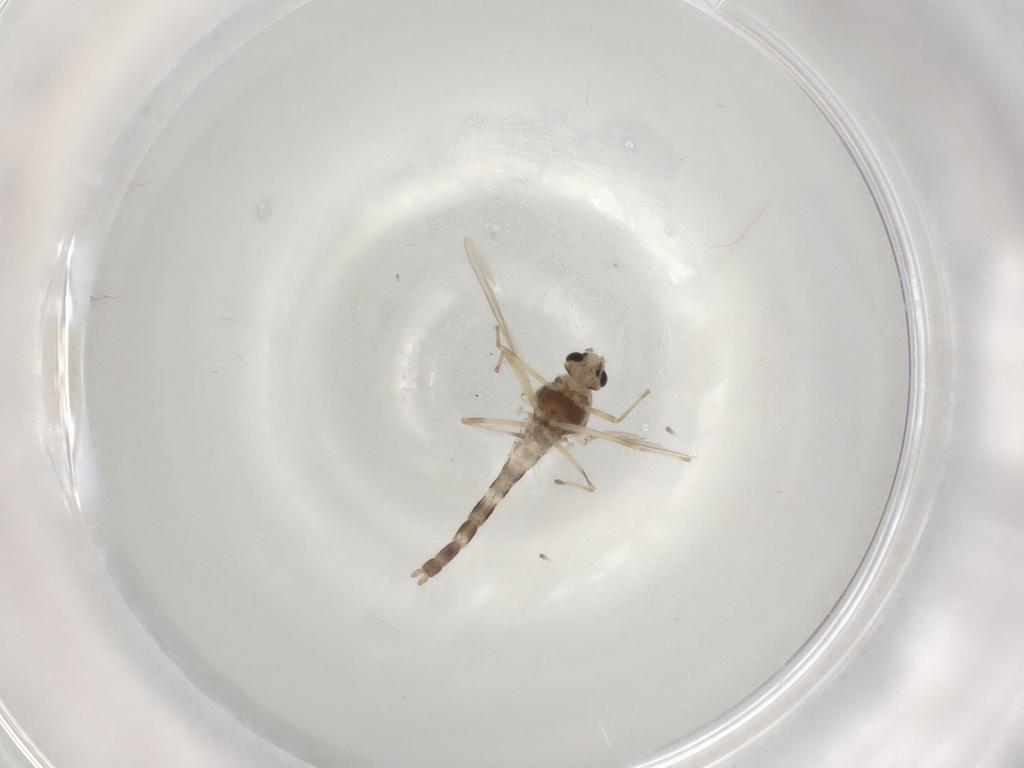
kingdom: Animalia
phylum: Arthropoda
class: Insecta
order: Diptera
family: Chironomidae
